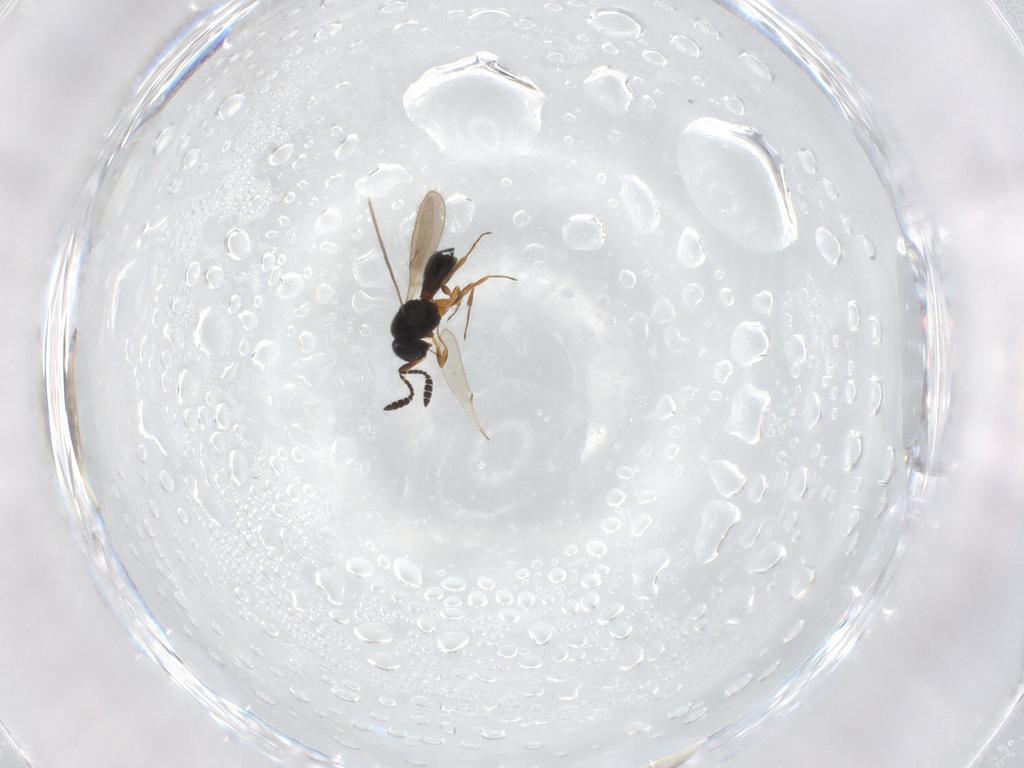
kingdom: Animalia
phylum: Arthropoda
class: Insecta
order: Hymenoptera
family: Scelionidae
